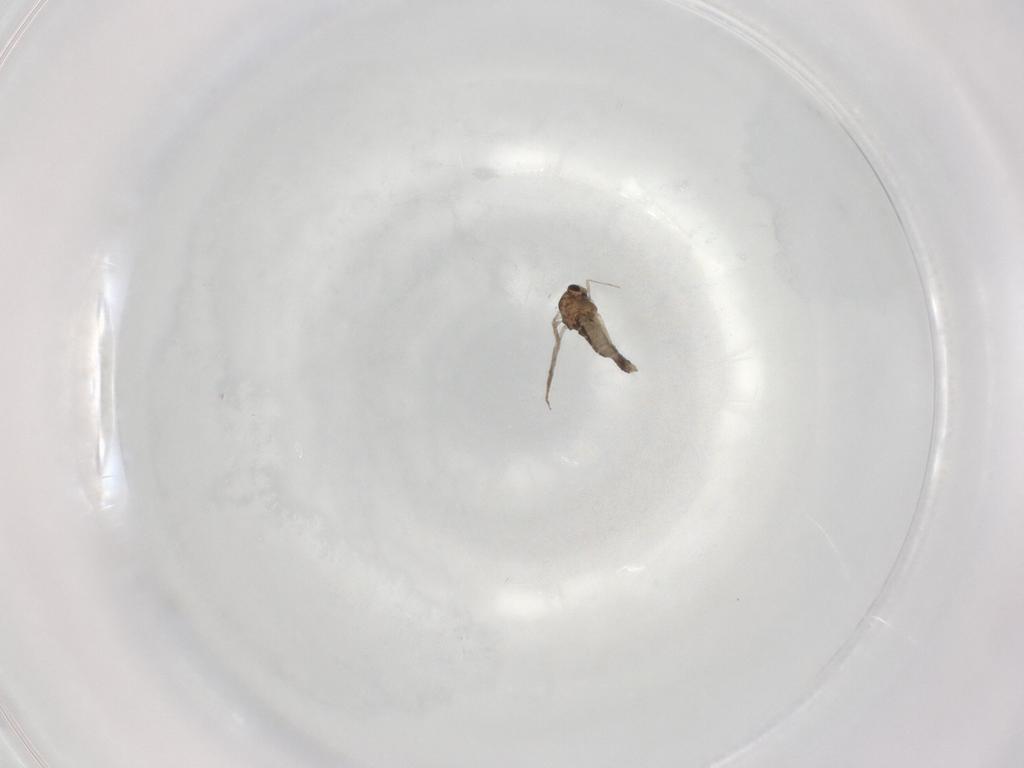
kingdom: Animalia
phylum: Arthropoda
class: Insecta
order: Diptera
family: Chironomidae
